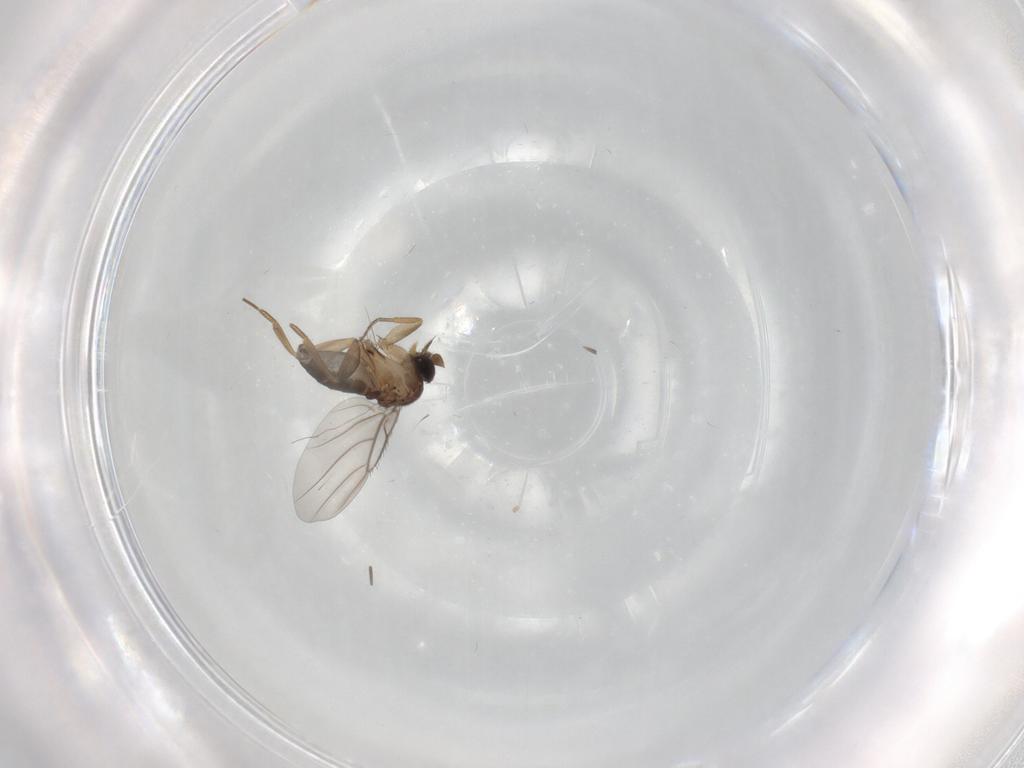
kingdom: Animalia
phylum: Arthropoda
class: Insecta
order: Diptera
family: Phoridae
